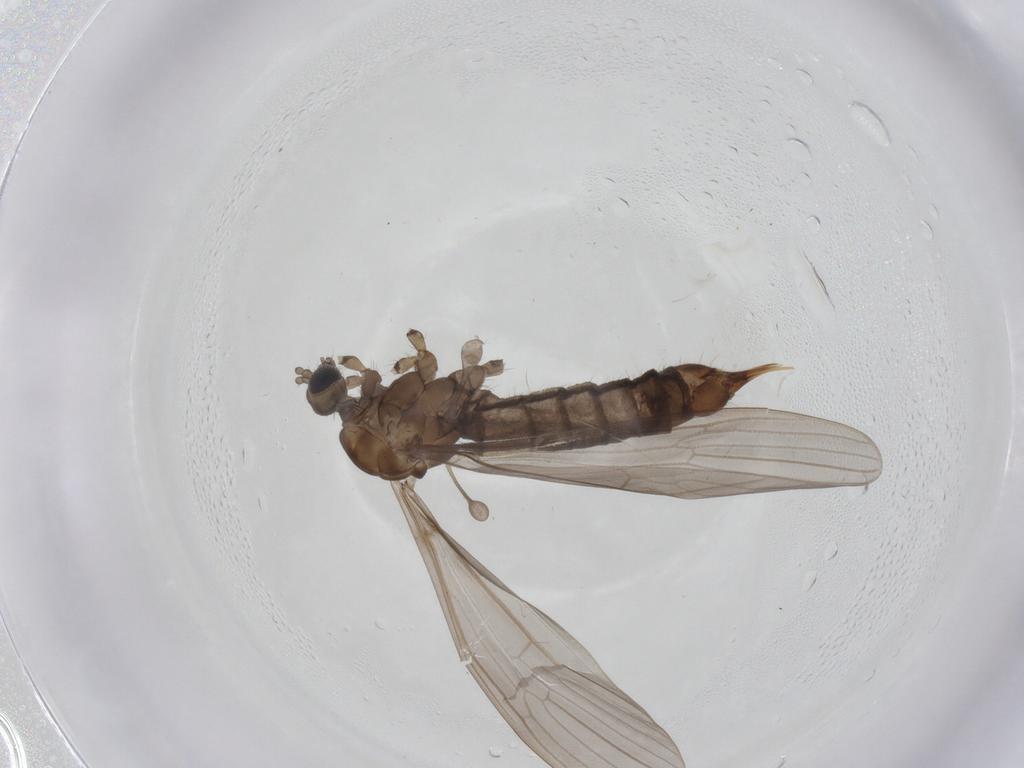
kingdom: Animalia
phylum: Arthropoda
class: Insecta
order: Diptera
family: Limoniidae
